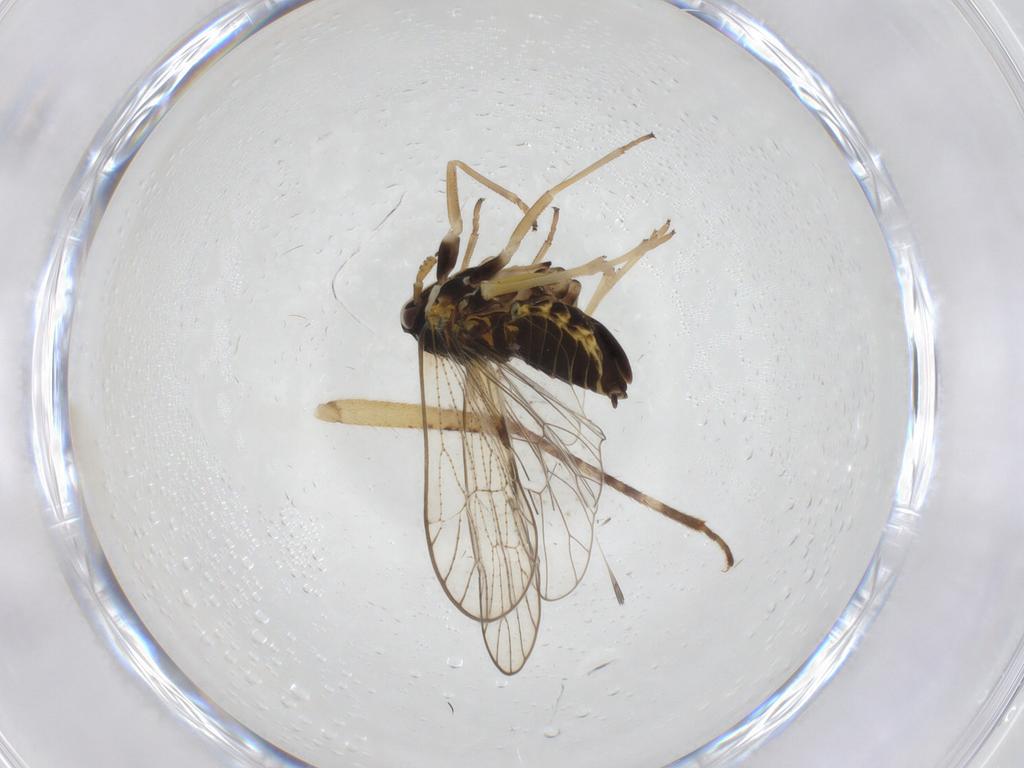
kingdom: Animalia
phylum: Arthropoda
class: Insecta
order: Hemiptera
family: Miridae
